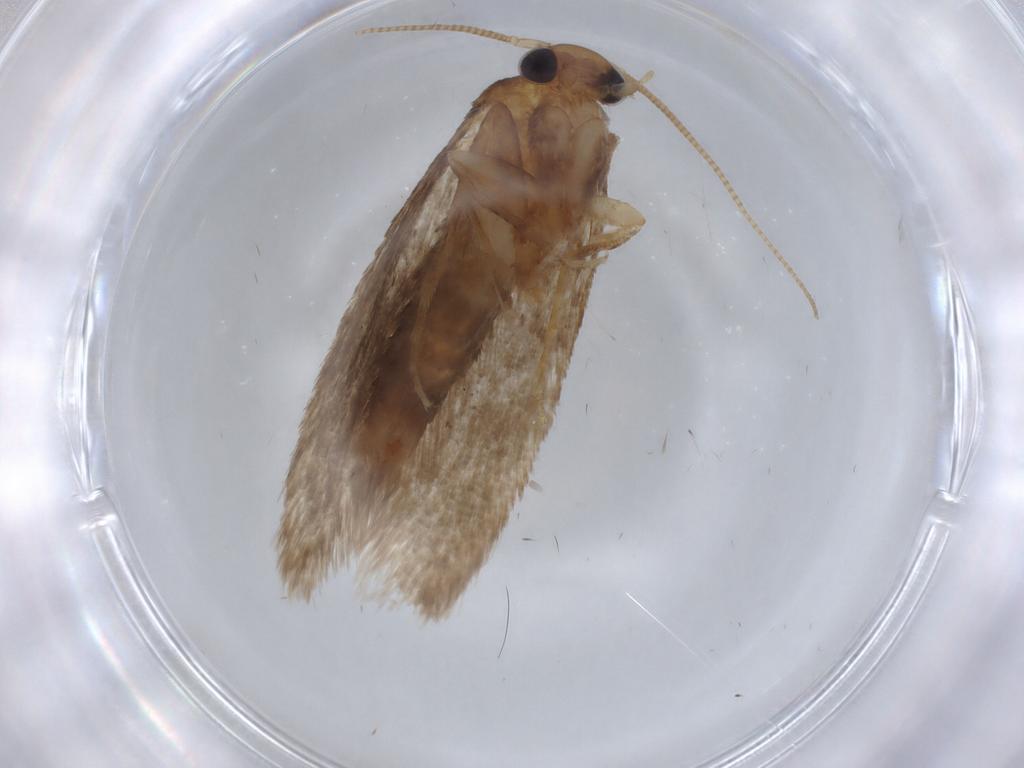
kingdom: Animalia
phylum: Arthropoda
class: Insecta
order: Lepidoptera
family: Tineidae
